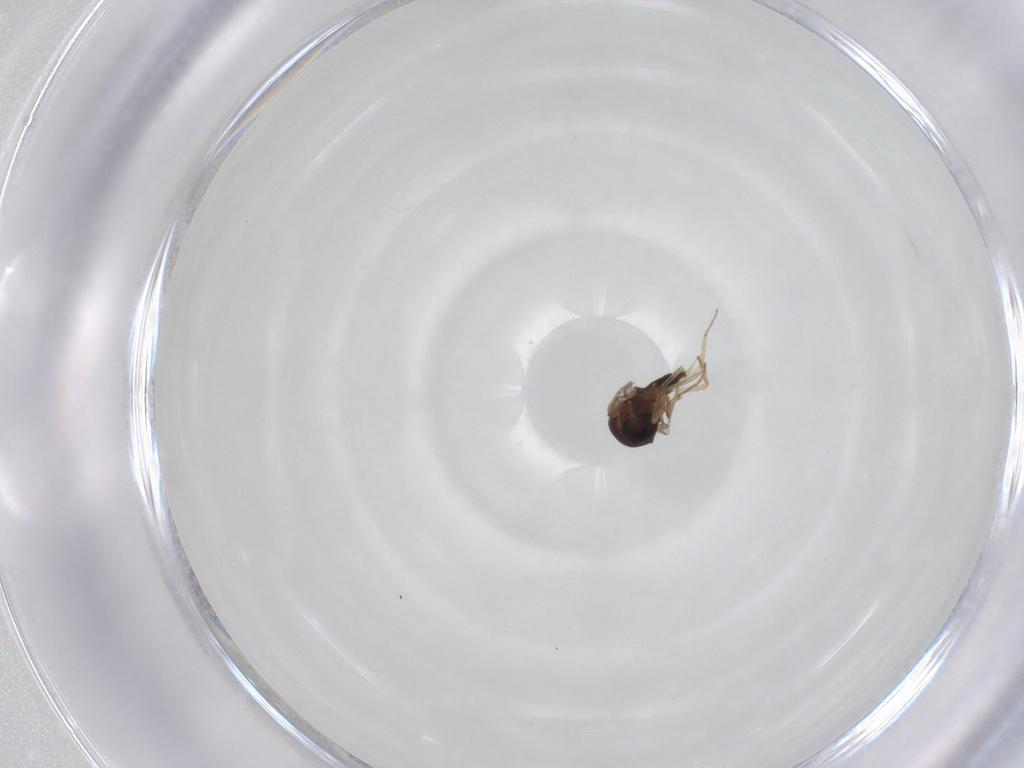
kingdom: Animalia
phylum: Arthropoda
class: Insecta
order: Diptera
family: Ceratopogonidae
